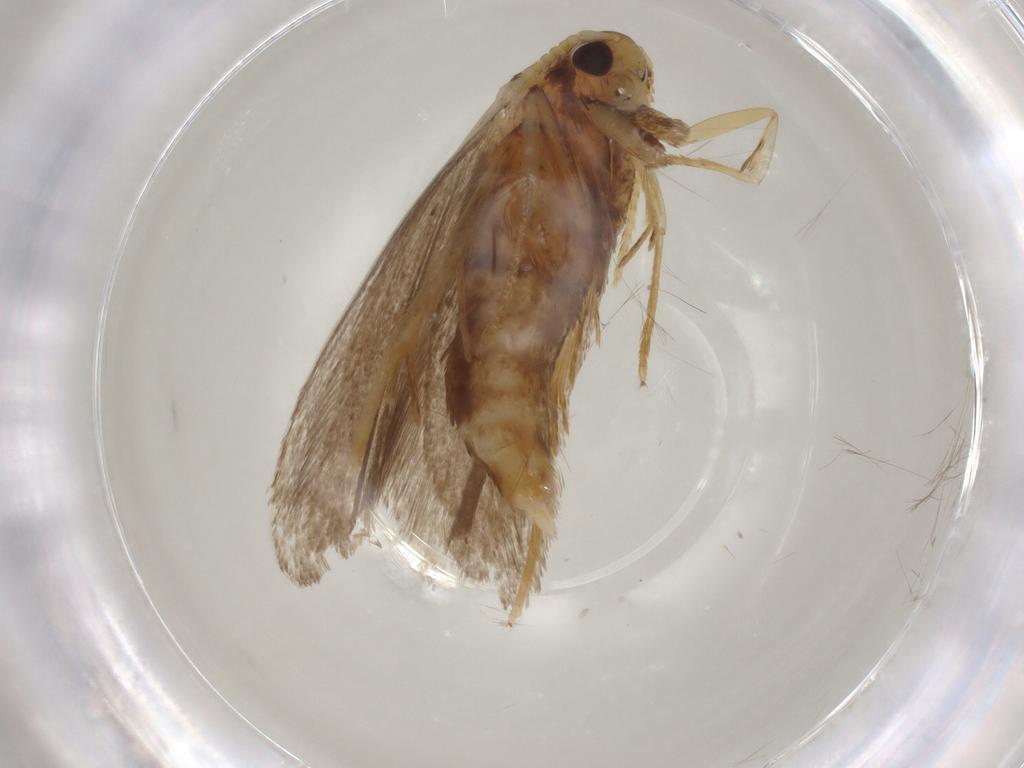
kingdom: Animalia
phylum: Arthropoda
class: Insecta
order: Lepidoptera
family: Lecithoceridae
